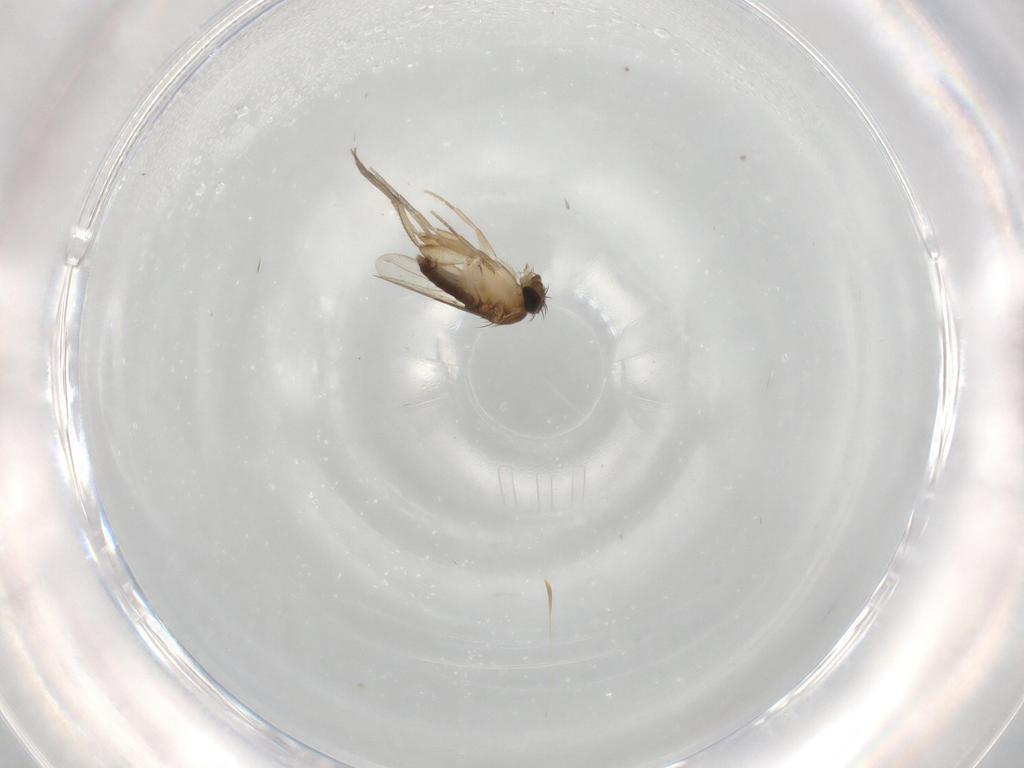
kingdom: Animalia
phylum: Arthropoda
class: Insecta
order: Diptera
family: Phoridae
